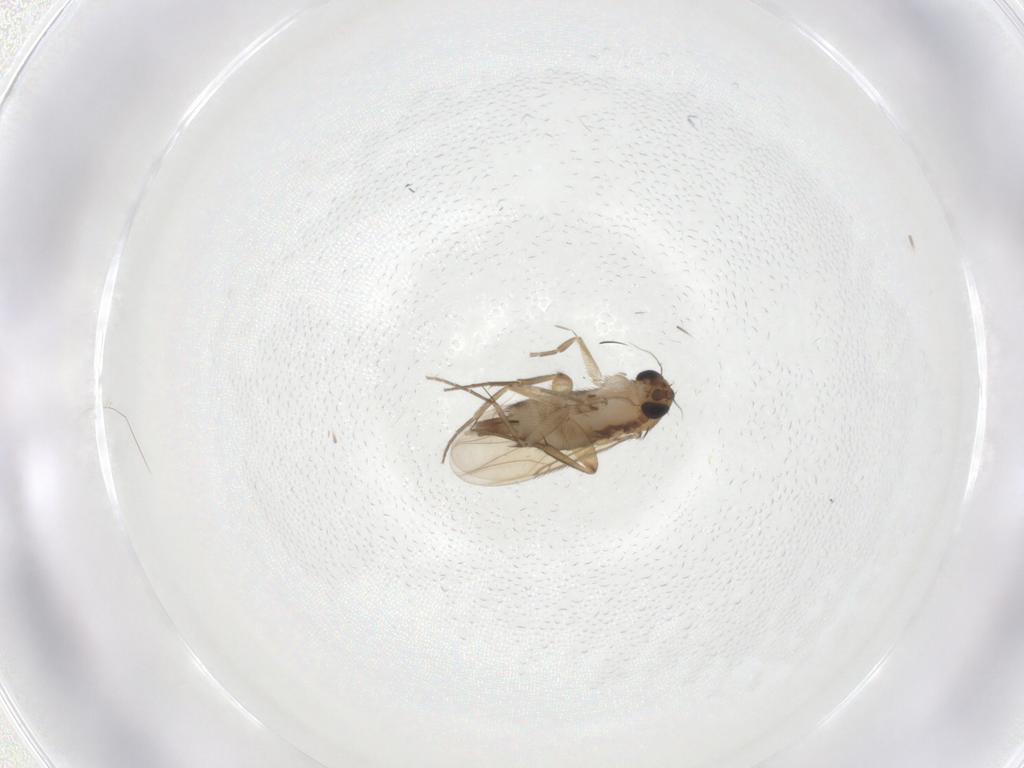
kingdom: Animalia
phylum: Arthropoda
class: Insecta
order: Diptera
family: Phoridae
